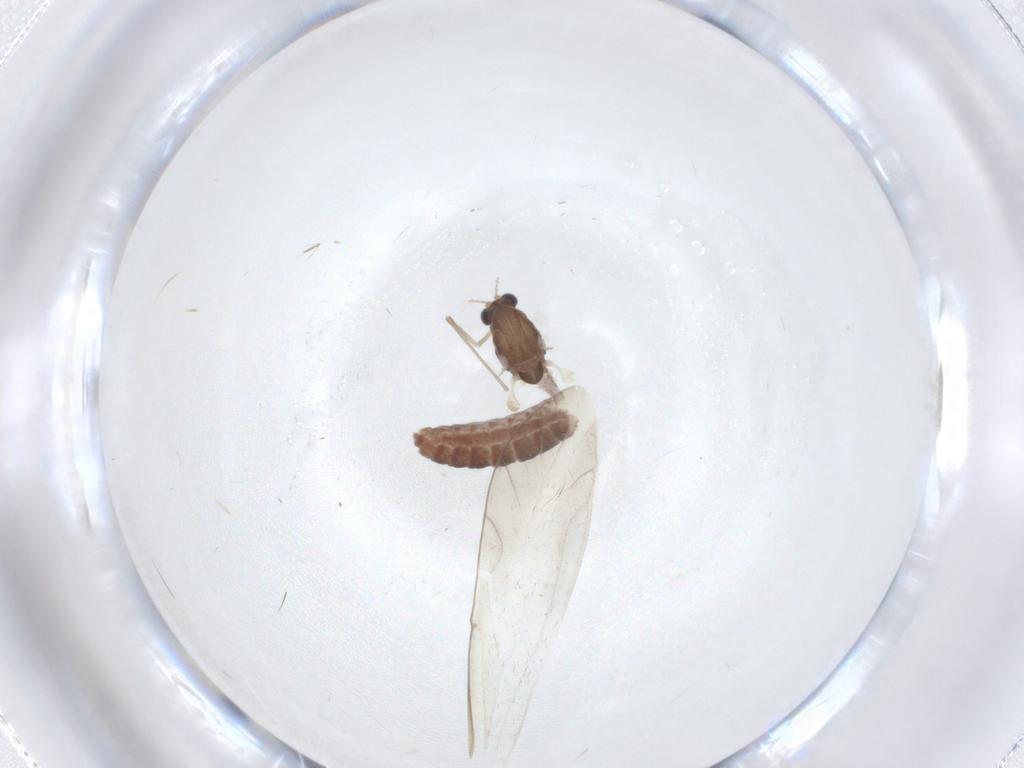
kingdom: Animalia
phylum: Arthropoda
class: Insecta
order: Diptera
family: Chironomidae
